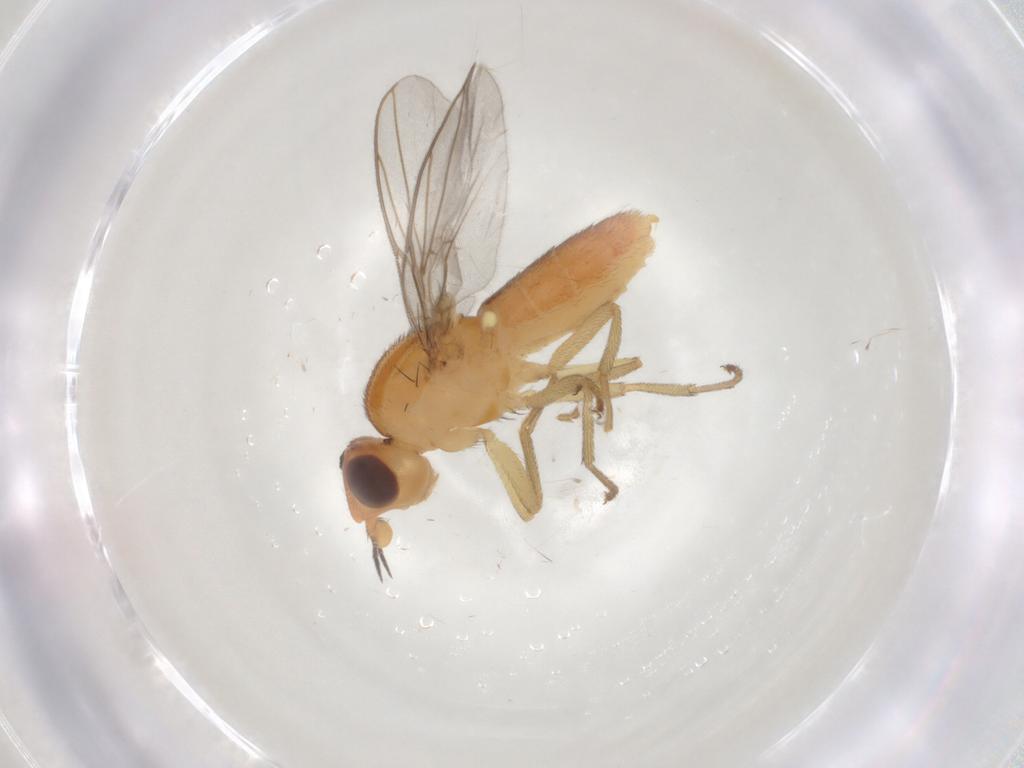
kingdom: Animalia
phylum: Arthropoda
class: Insecta
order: Diptera
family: Chloropidae
